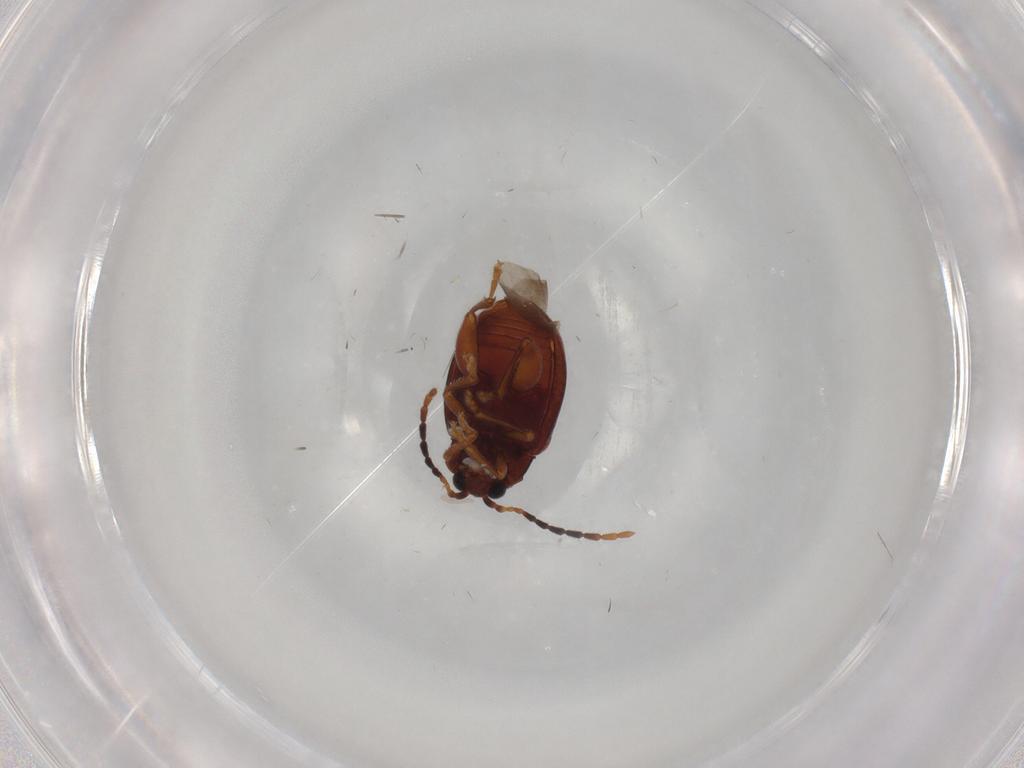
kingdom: Animalia
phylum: Arthropoda
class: Insecta
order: Coleoptera
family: Chrysomelidae
